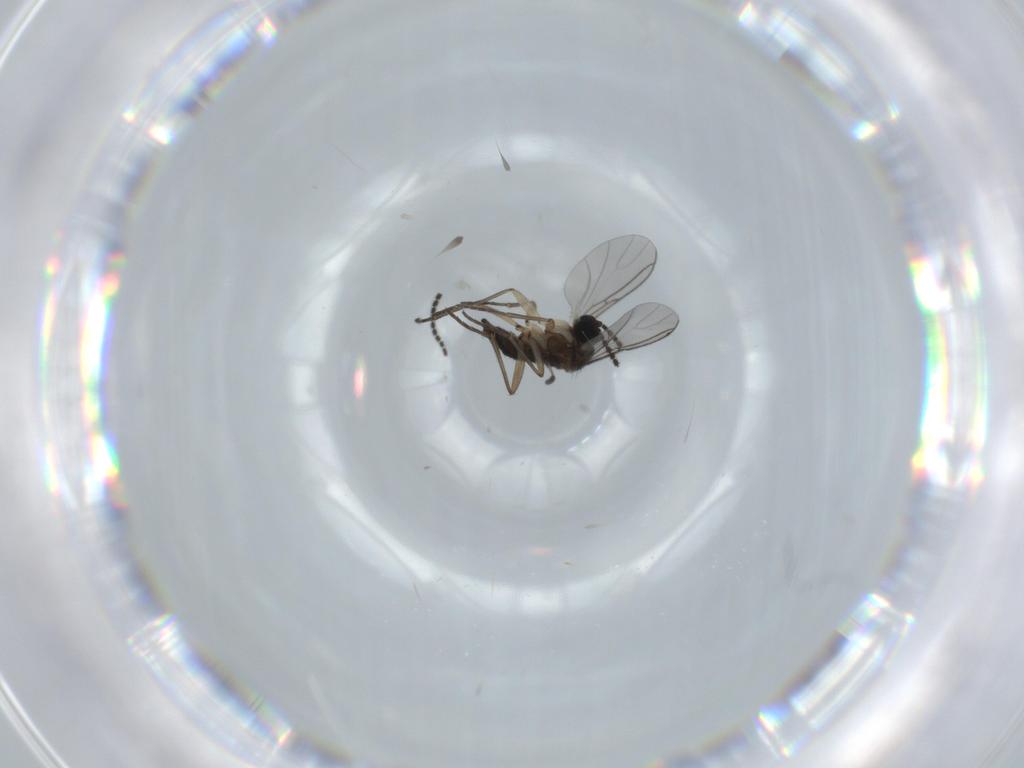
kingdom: Animalia
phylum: Arthropoda
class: Insecta
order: Diptera
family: Sciaridae
